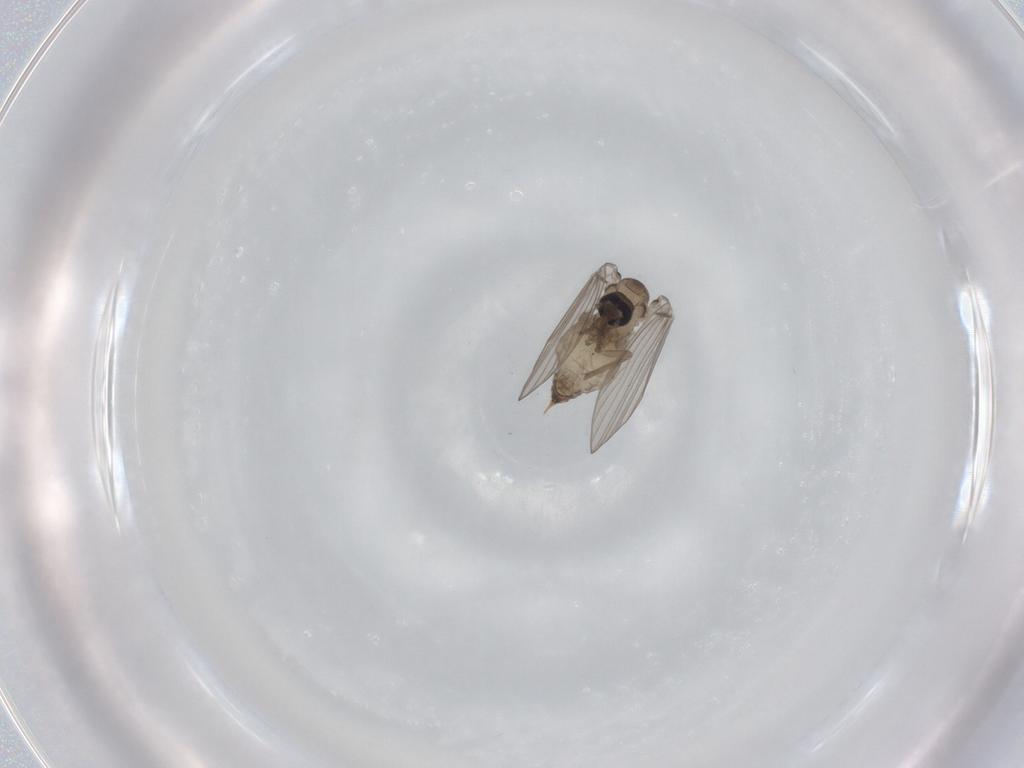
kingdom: Animalia
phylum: Arthropoda
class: Insecta
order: Diptera
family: Psychodidae
